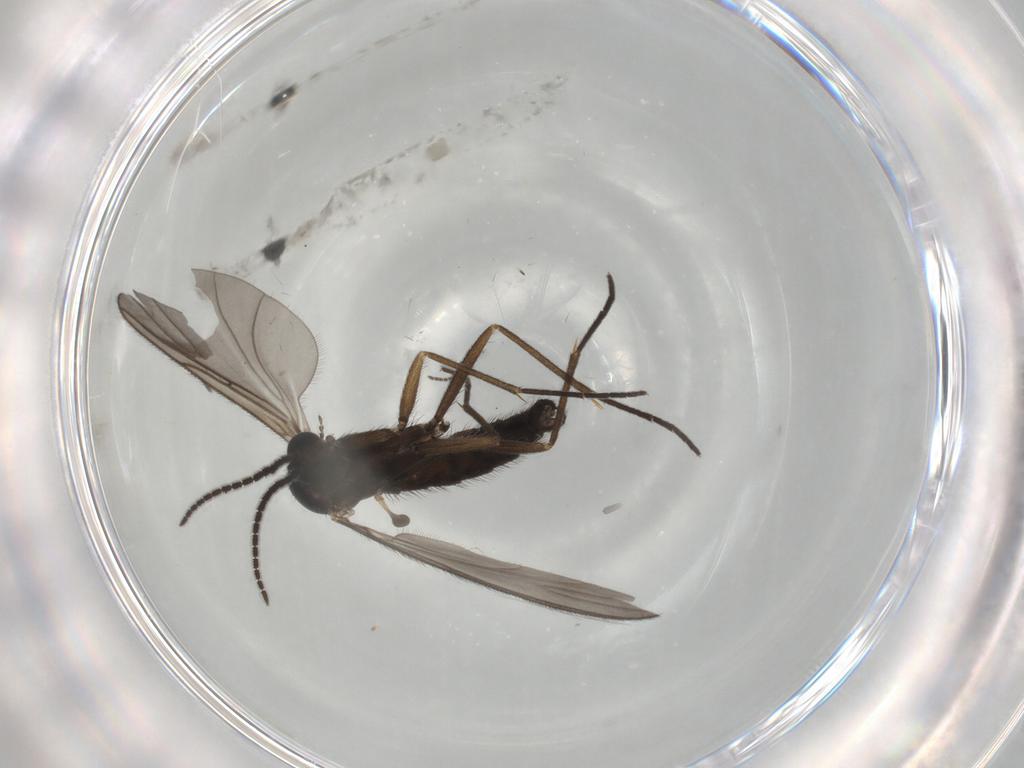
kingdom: Animalia
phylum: Arthropoda
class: Insecta
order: Diptera
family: Sciaridae
